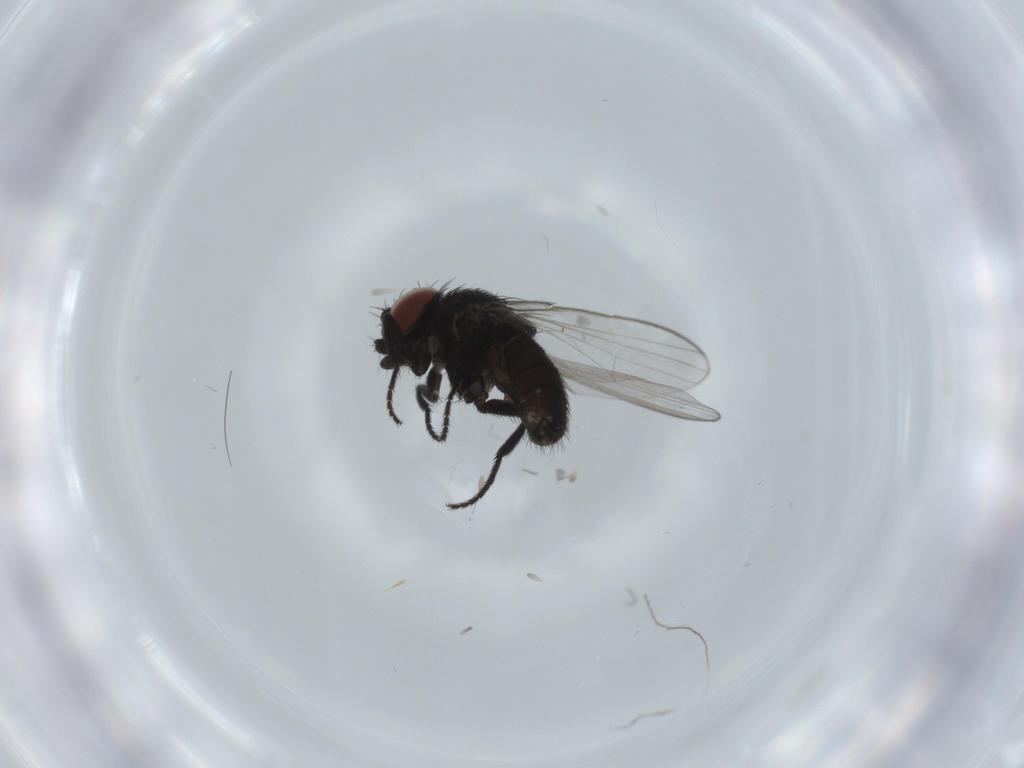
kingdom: Animalia
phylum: Arthropoda
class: Insecta
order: Diptera
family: Milichiidae
